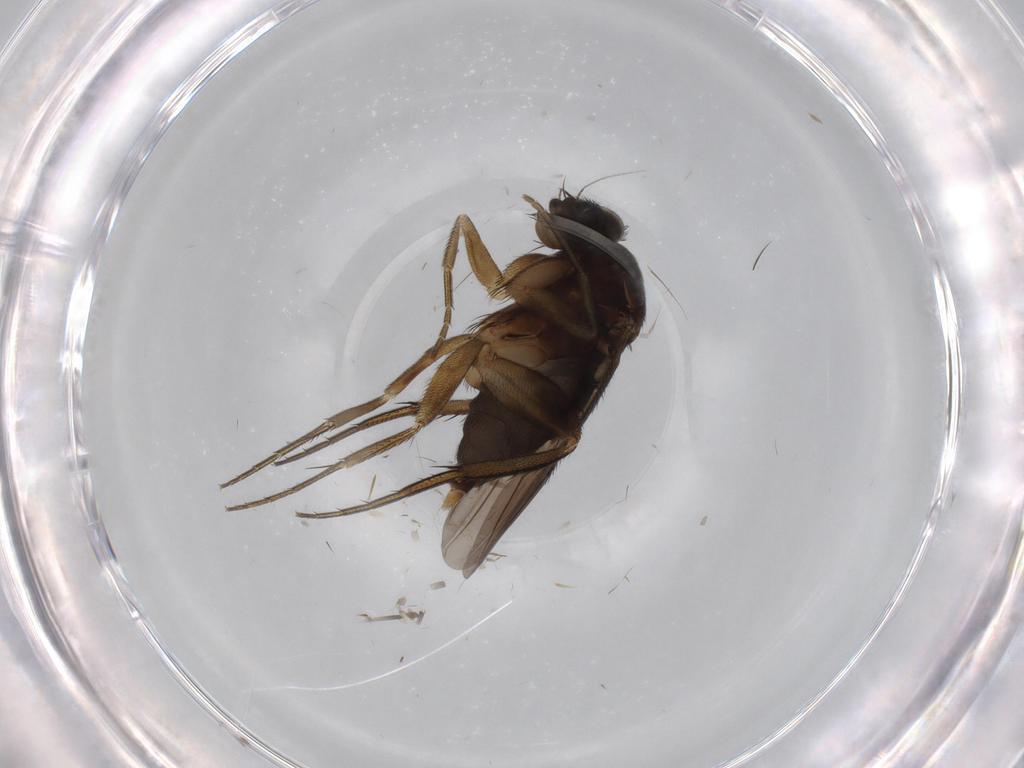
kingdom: Animalia
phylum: Arthropoda
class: Insecta
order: Diptera
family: Phoridae
